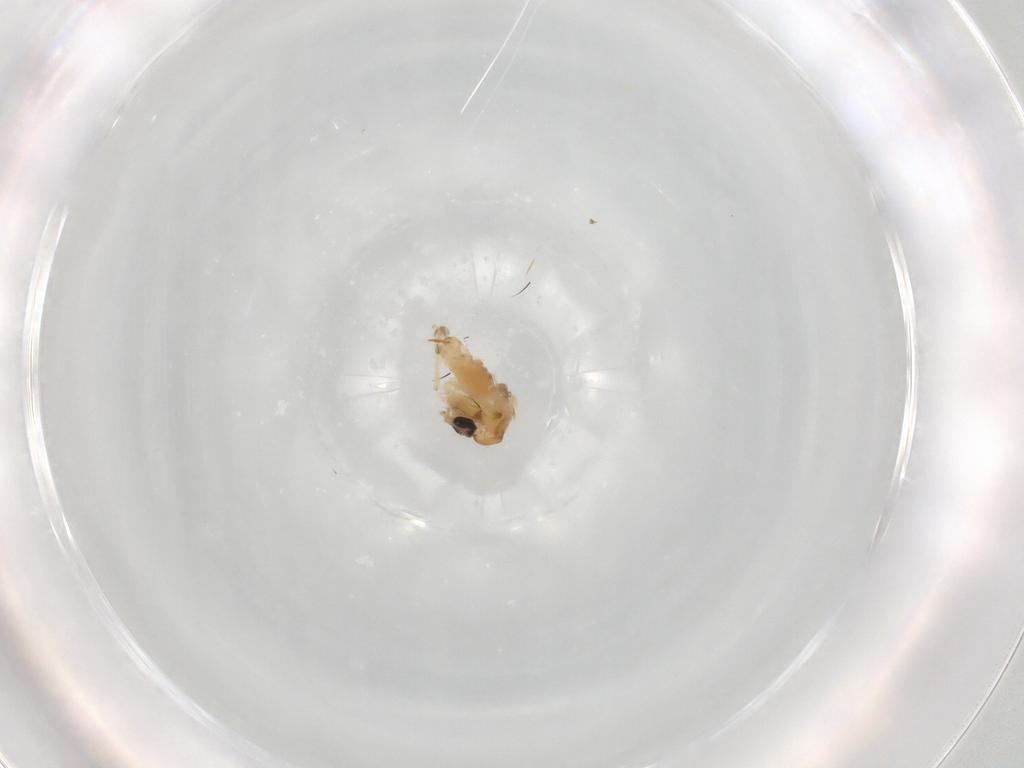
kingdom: Animalia
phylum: Arthropoda
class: Insecta
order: Diptera
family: Chironomidae
